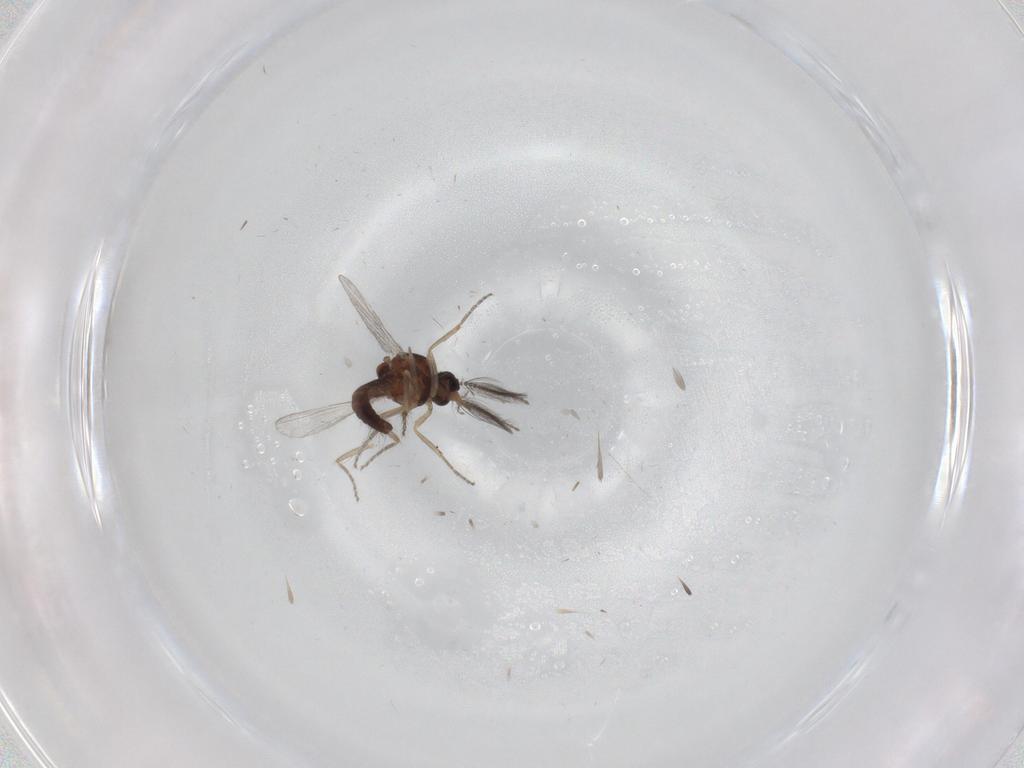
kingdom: Animalia
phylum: Arthropoda
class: Insecta
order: Diptera
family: Ceratopogonidae
